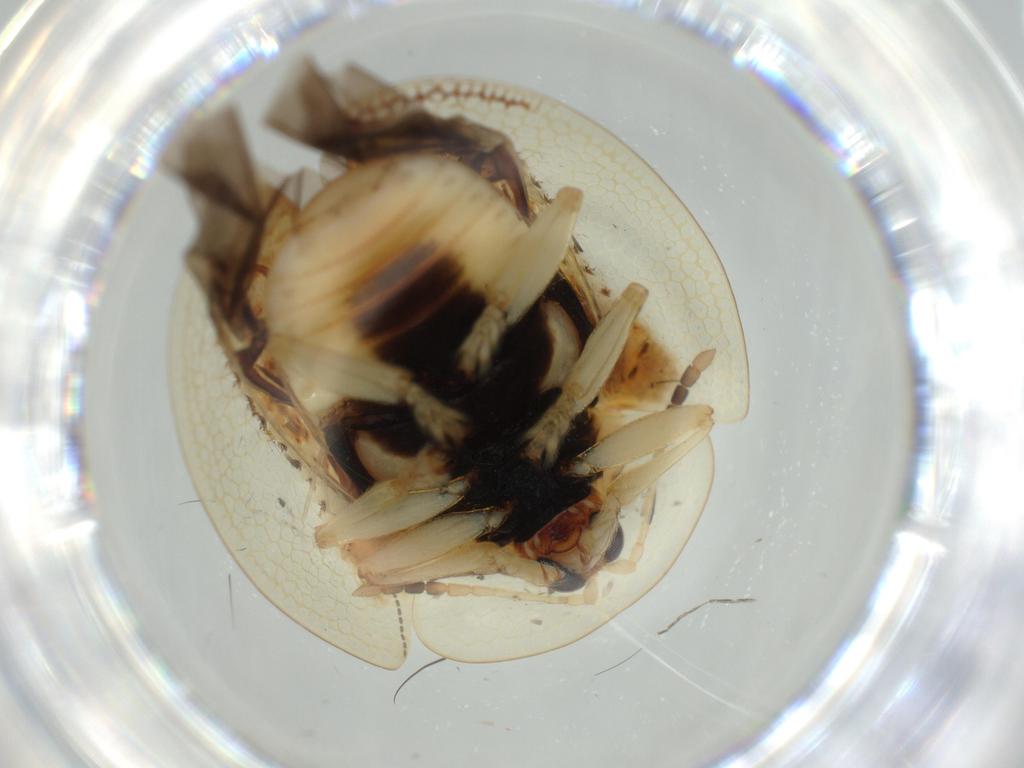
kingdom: Animalia
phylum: Arthropoda
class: Insecta
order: Coleoptera
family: Chrysomelidae
